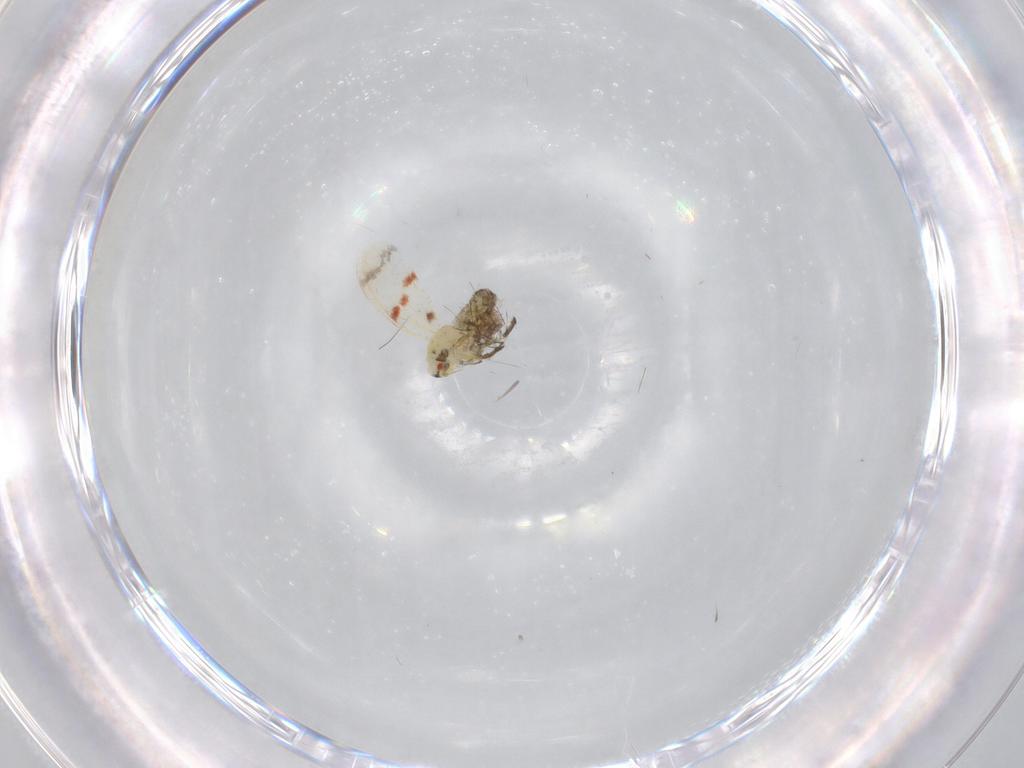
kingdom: Animalia
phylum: Arthropoda
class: Insecta
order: Hemiptera
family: Aleyrodidae
